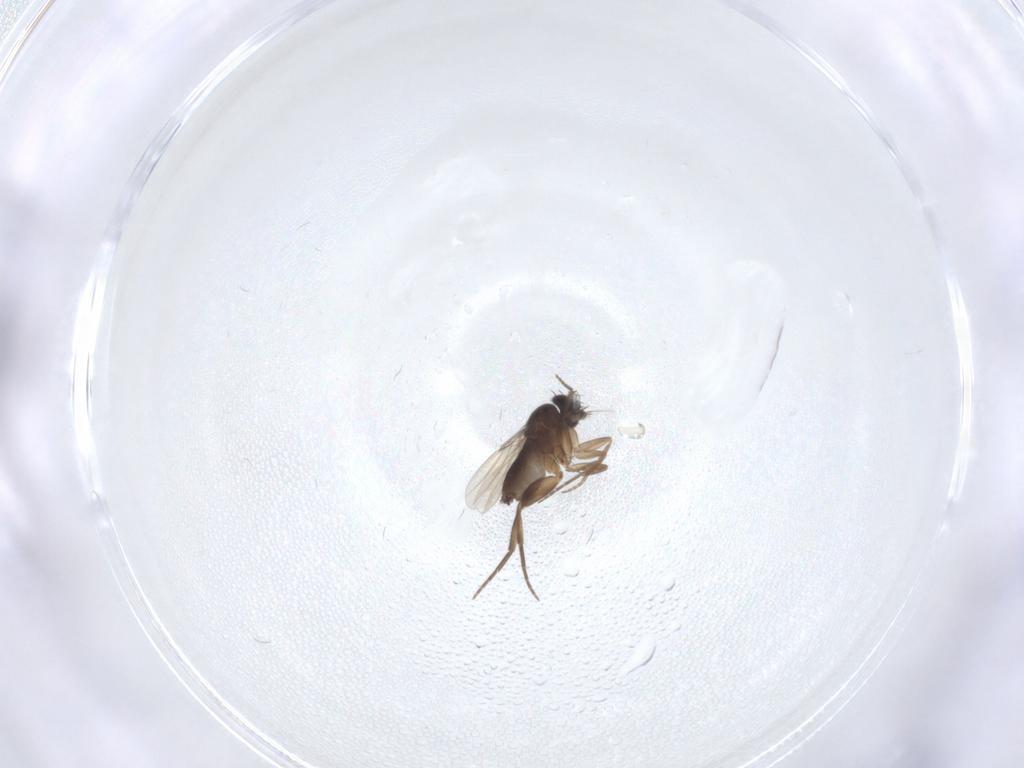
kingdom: Animalia
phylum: Arthropoda
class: Insecta
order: Diptera
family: Phoridae
